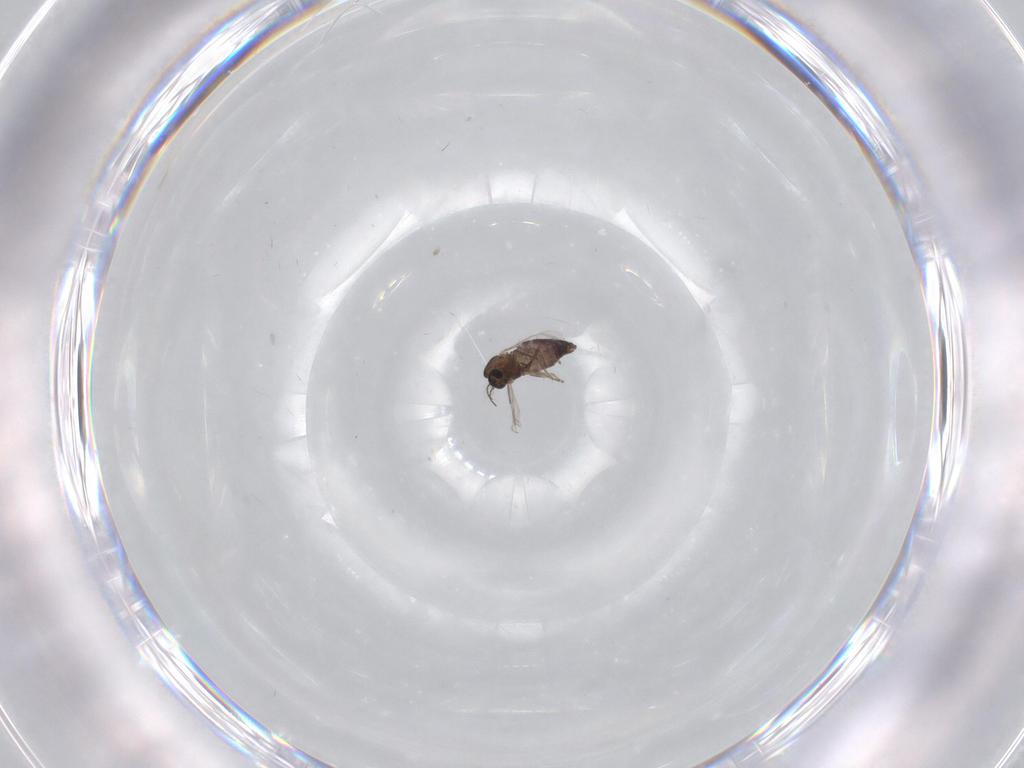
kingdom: Animalia
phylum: Arthropoda
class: Insecta
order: Diptera
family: Chironomidae
